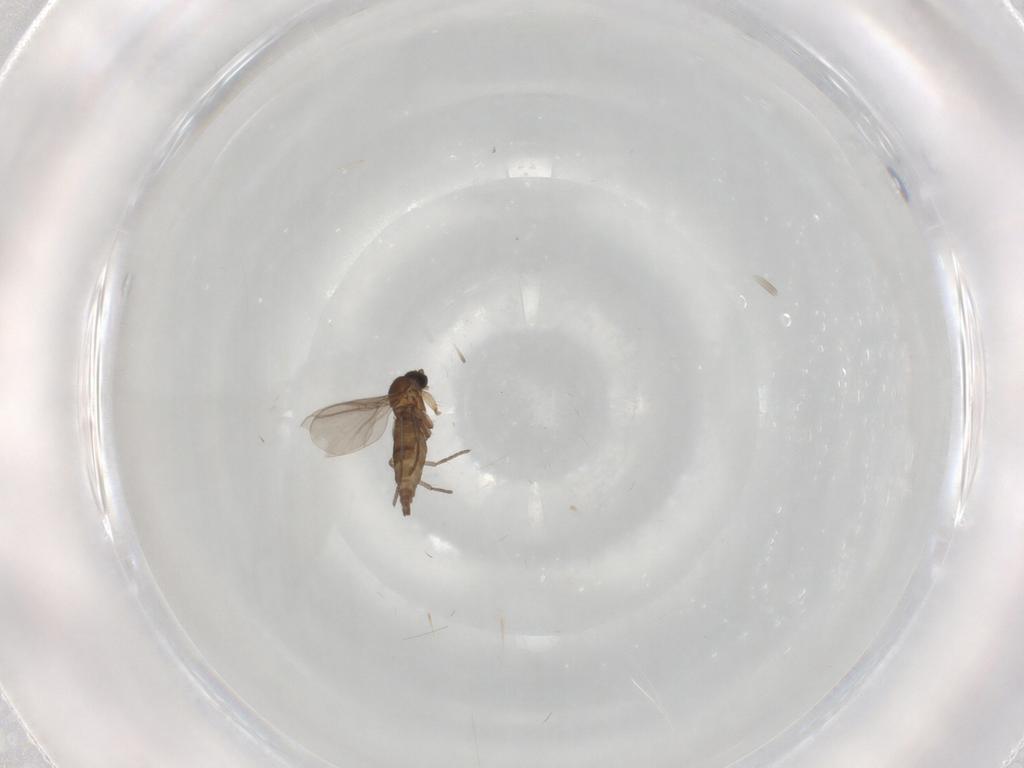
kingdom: Animalia
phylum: Arthropoda
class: Insecta
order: Diptera
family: Sciaridae
